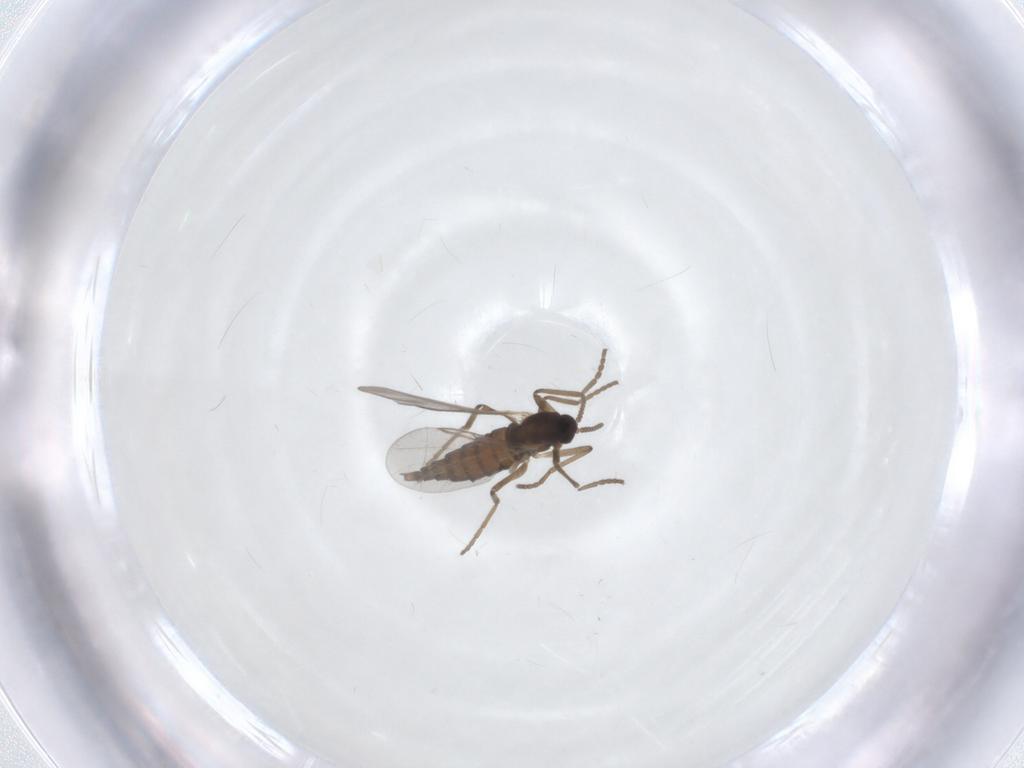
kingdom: Animalia
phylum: Arthropoda
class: Insecta
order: Diptera
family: Cecidomyiidae
